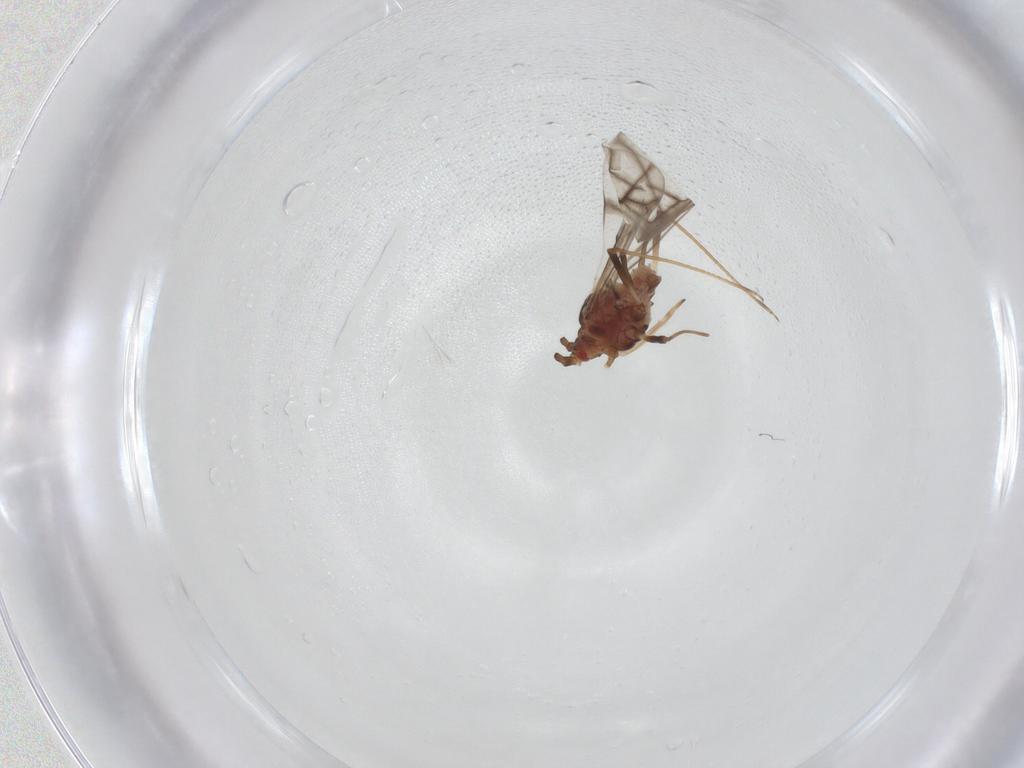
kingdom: Animalia
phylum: Arthropoda
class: Insecta
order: Hemiptera
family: Aphididae
